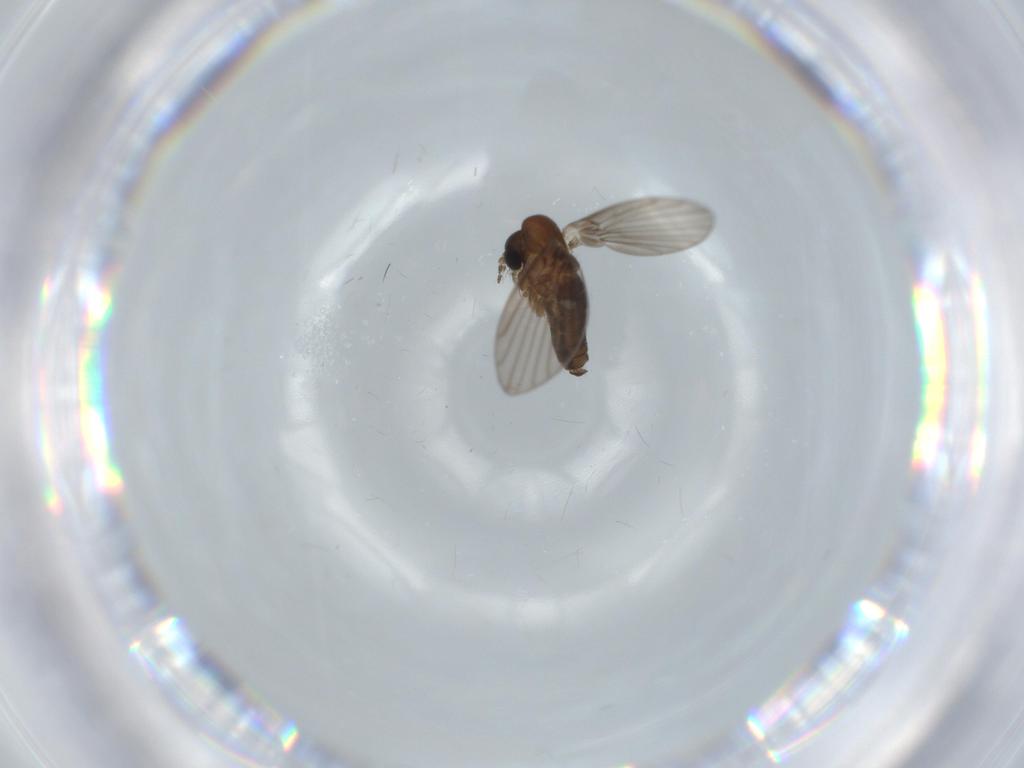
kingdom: Animalia
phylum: Arthropoda
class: Insecta
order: Diptera
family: Psychodidae
